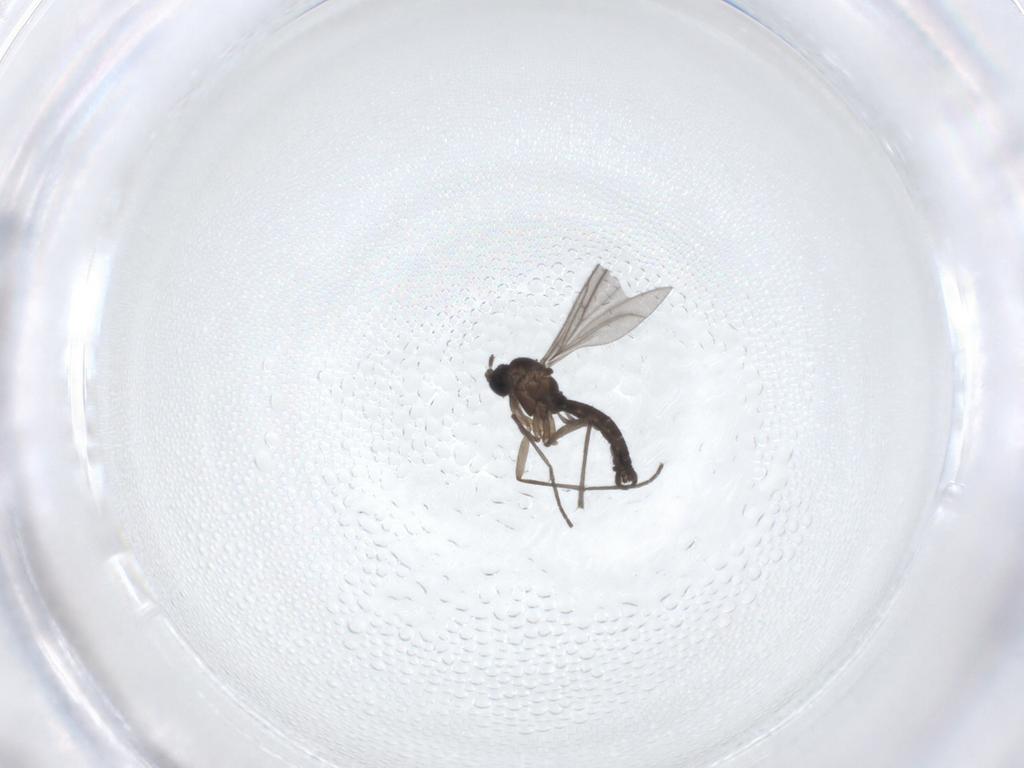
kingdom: Animalia
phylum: Arthropoda
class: Insecta
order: Diptera
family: Sciaridae
